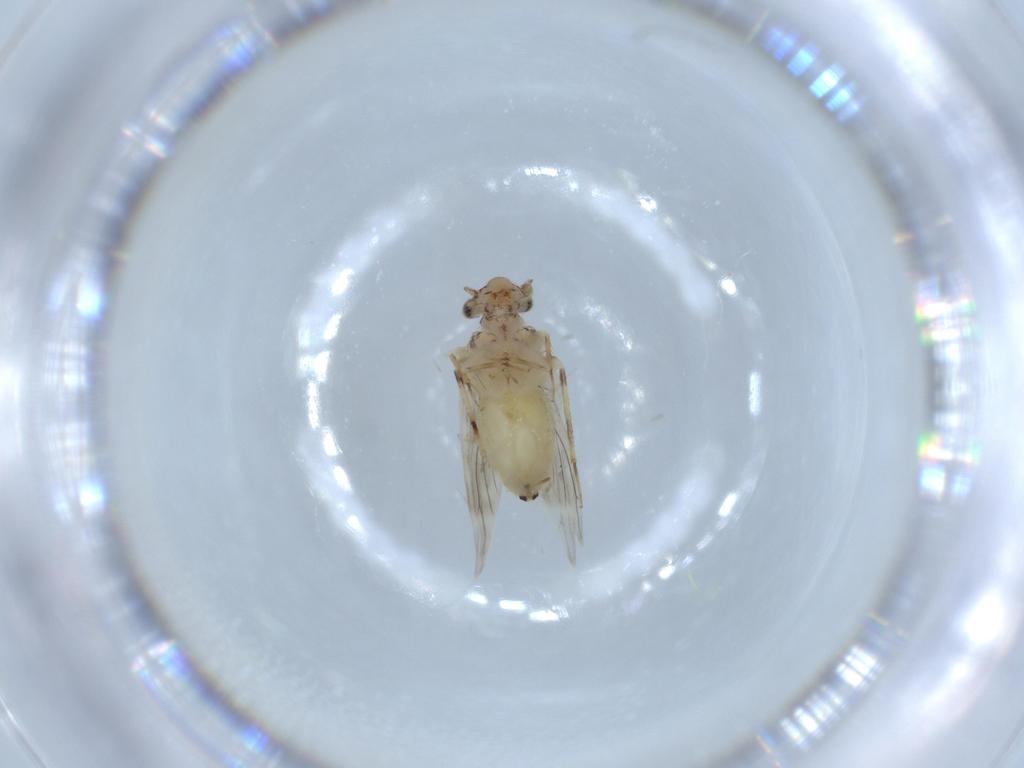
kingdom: Animalia
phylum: Arthropoda
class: Insecta
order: Psocodea
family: Lepidopsocidae
